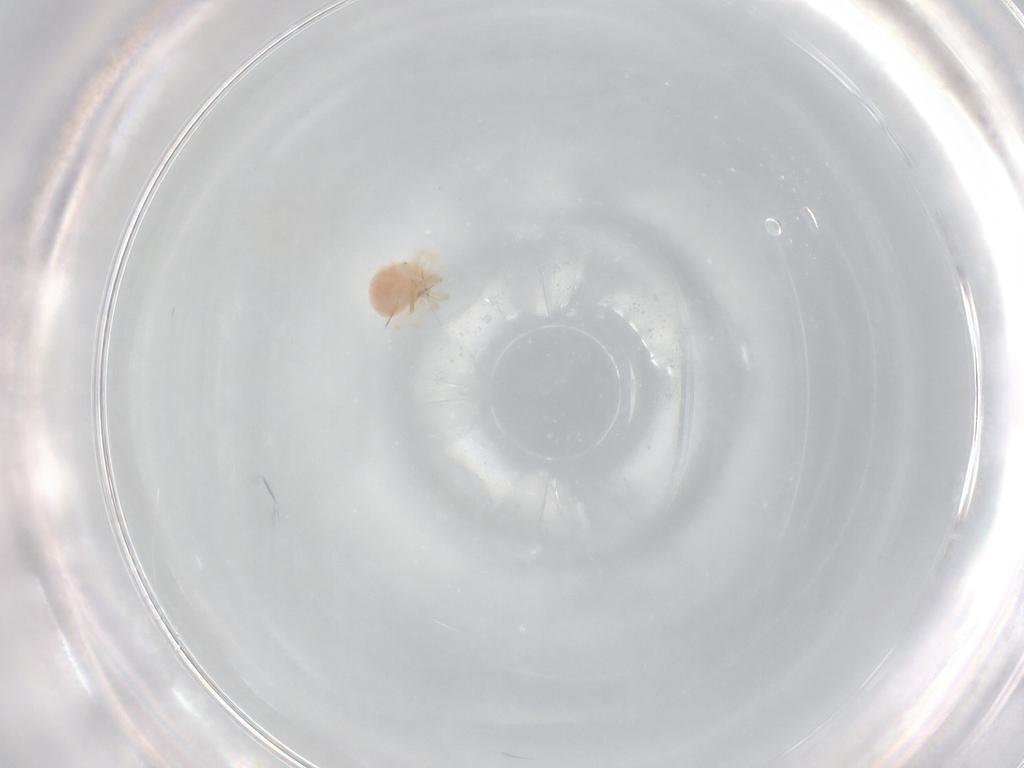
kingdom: Animalia
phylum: Arthropoda
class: Arachnida
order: Trombidiformes
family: Anystidae
